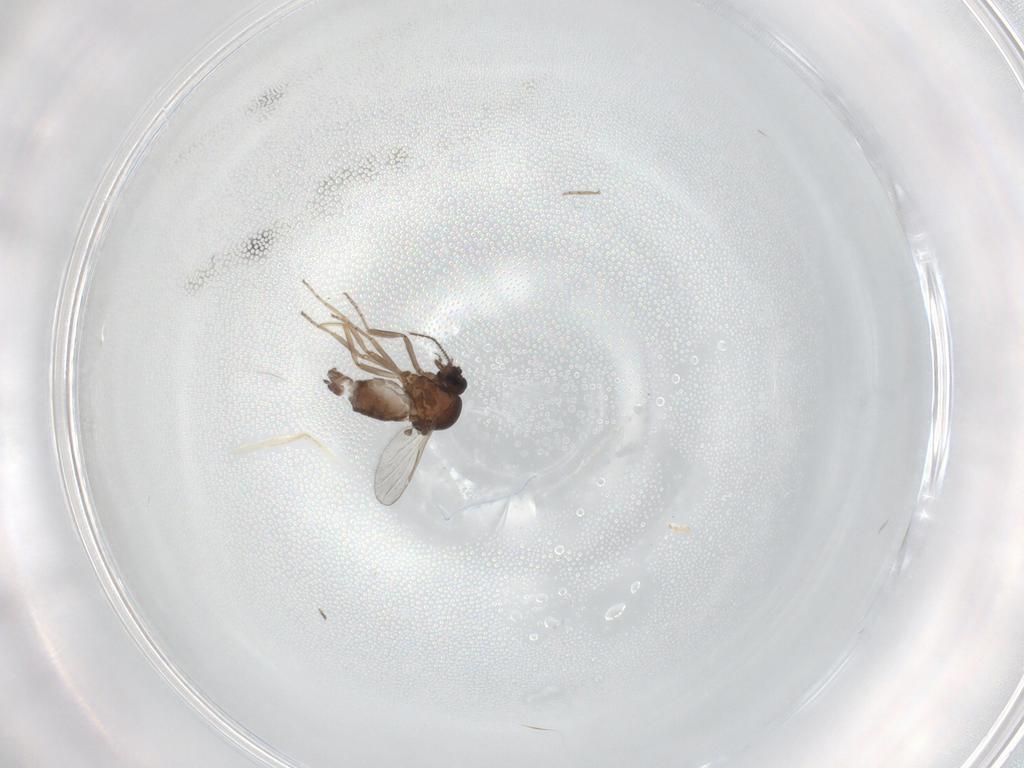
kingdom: Animalia
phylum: Arthropoda
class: Insecta
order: Diptera
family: Ceratopogonidae
